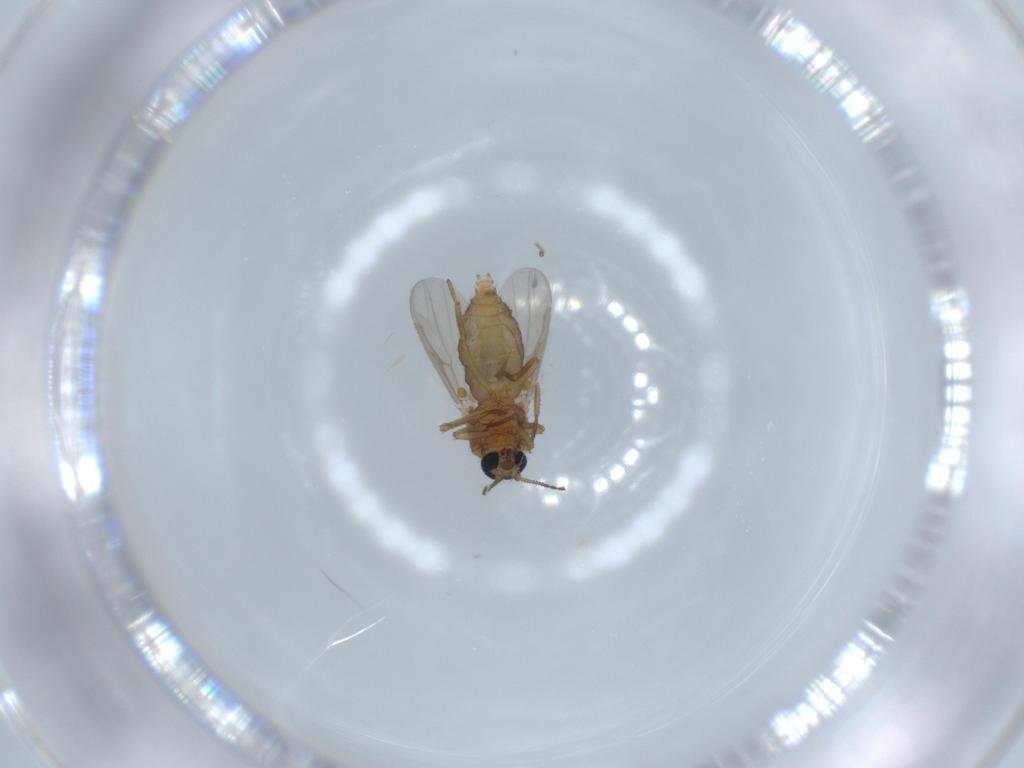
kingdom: Animalia
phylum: Arthropoda
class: Insecta
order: Diptera
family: Ceratopogonidae
